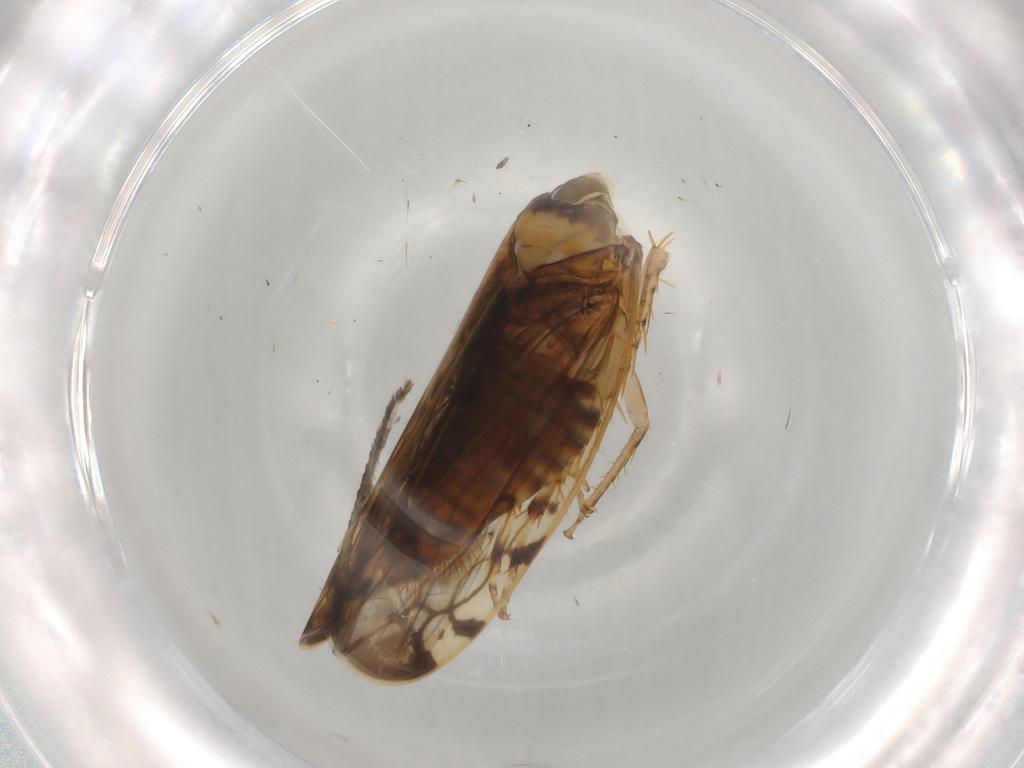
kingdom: Animalia
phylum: Arthropoda
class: Insecta
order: Hemiptera
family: Cicadellidae
